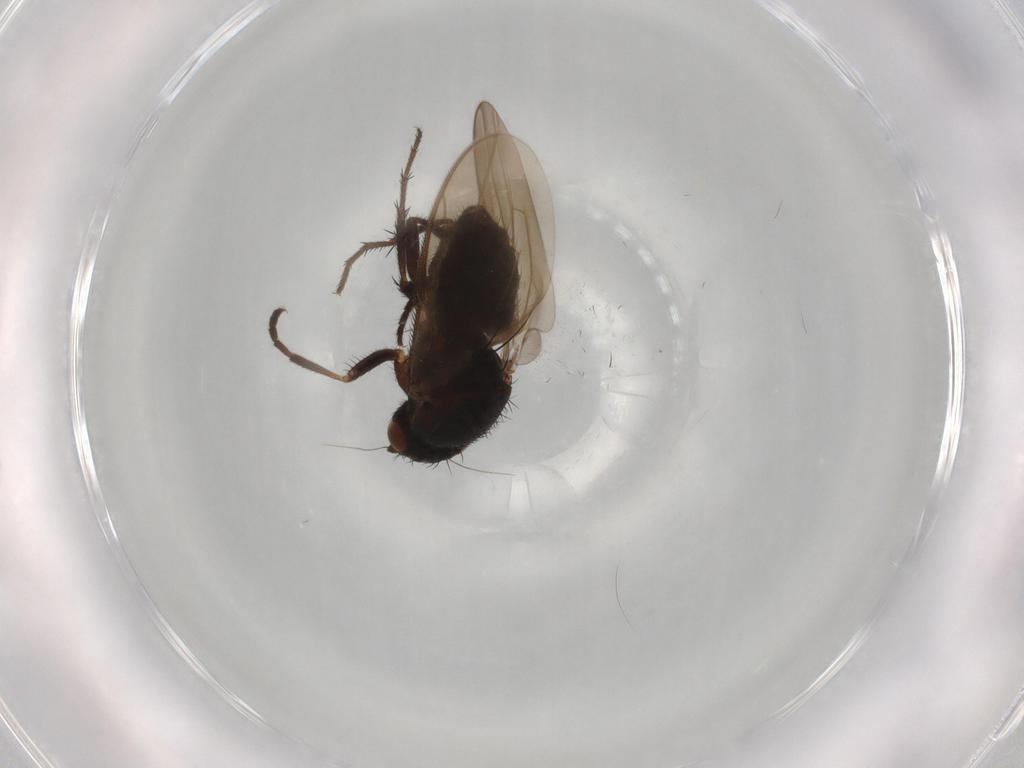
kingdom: Animalia
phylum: Arthropoda
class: Insecta
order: Diptera
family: Sphaeroceridae
